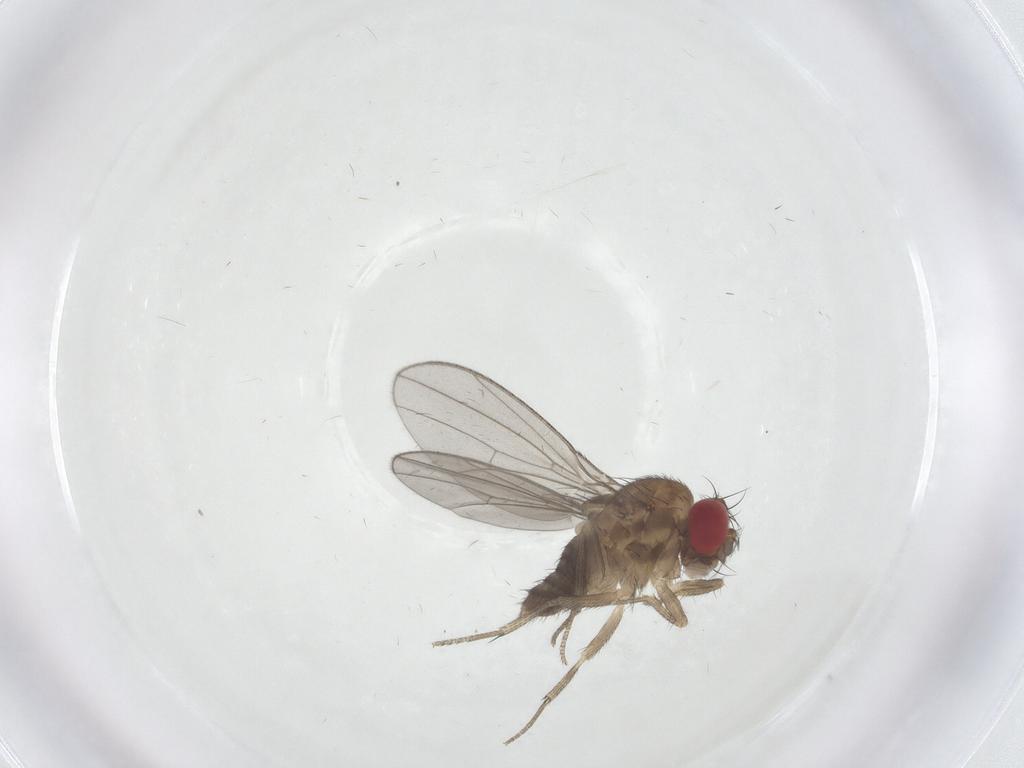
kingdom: Animalia
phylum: Arthropoda
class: Insecta
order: Diptera
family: Drosophilidae
